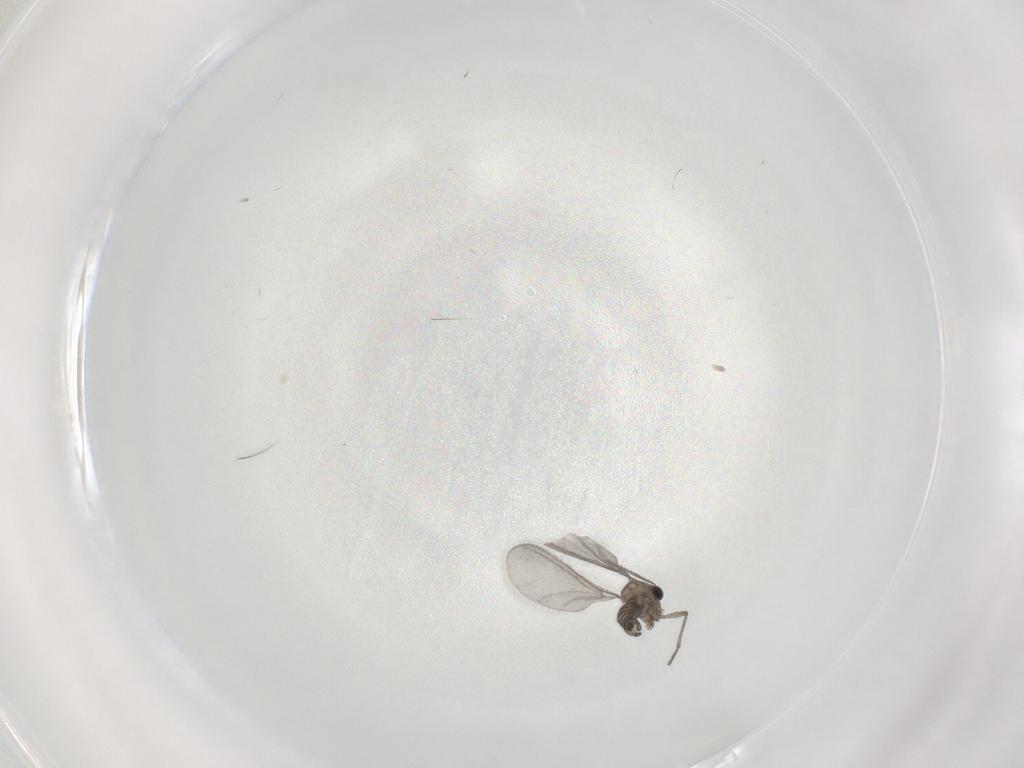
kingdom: Animalia
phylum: Arthropoda
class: Insecta
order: Diptera
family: Sciaridae
